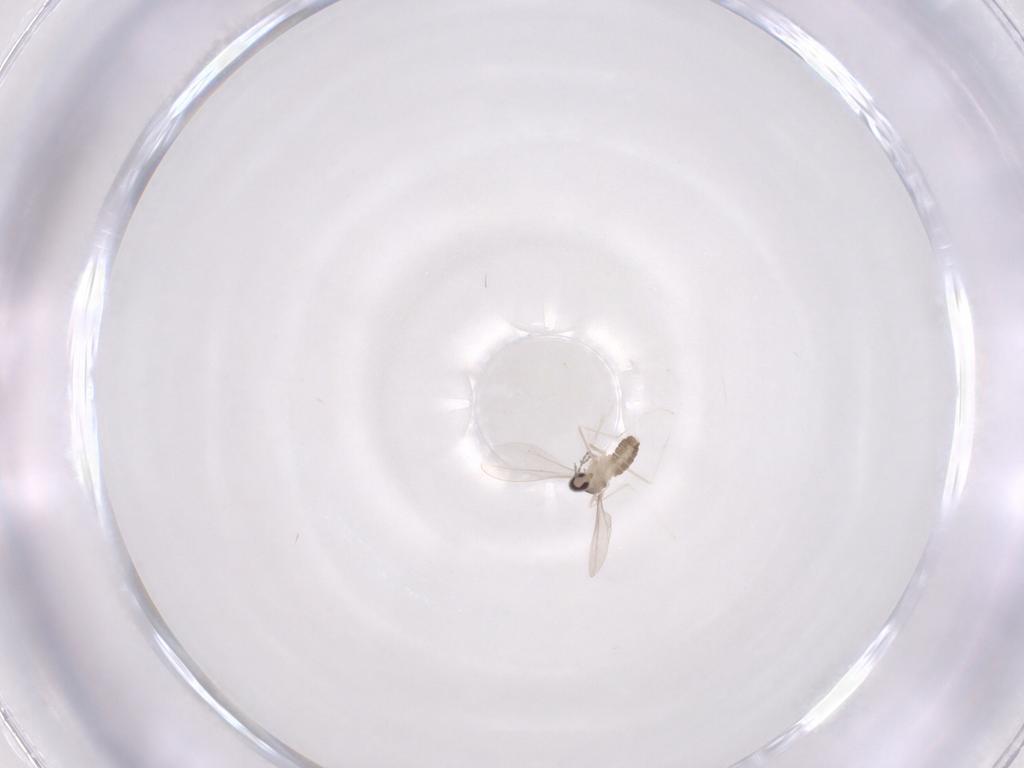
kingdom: Animalia
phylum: Arthropoda
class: Insecta
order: Diptera
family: Cecidomyiidae
